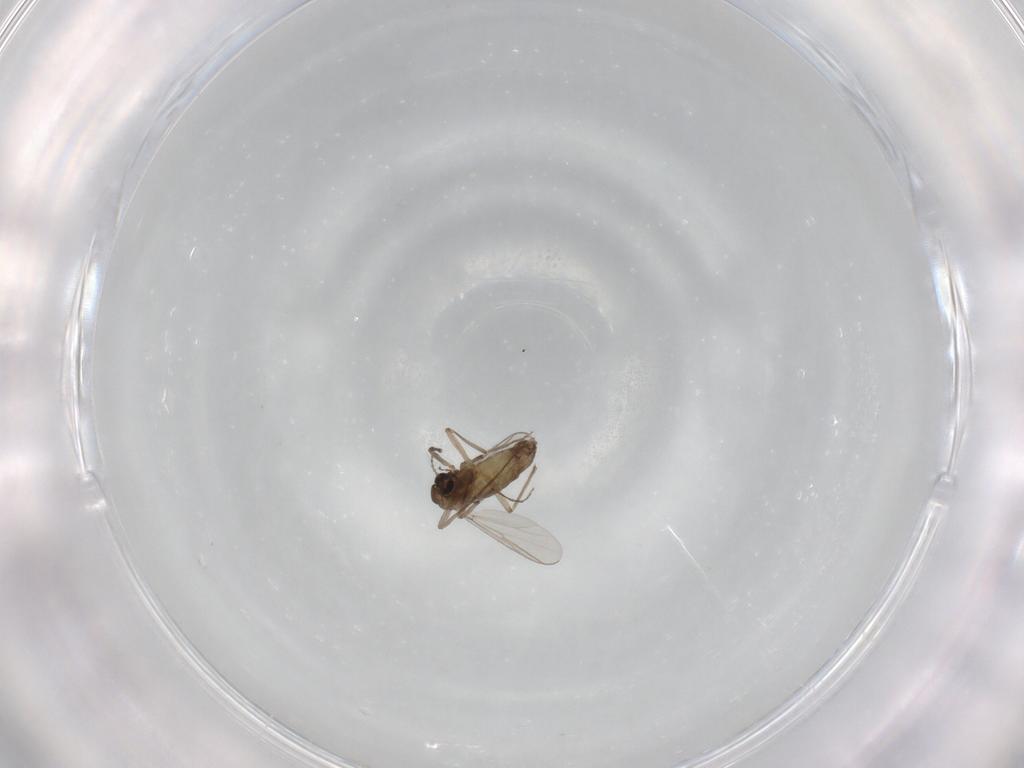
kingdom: Animalia
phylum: Arthropoda
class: Insecta
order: Diptera
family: Chironomidae
